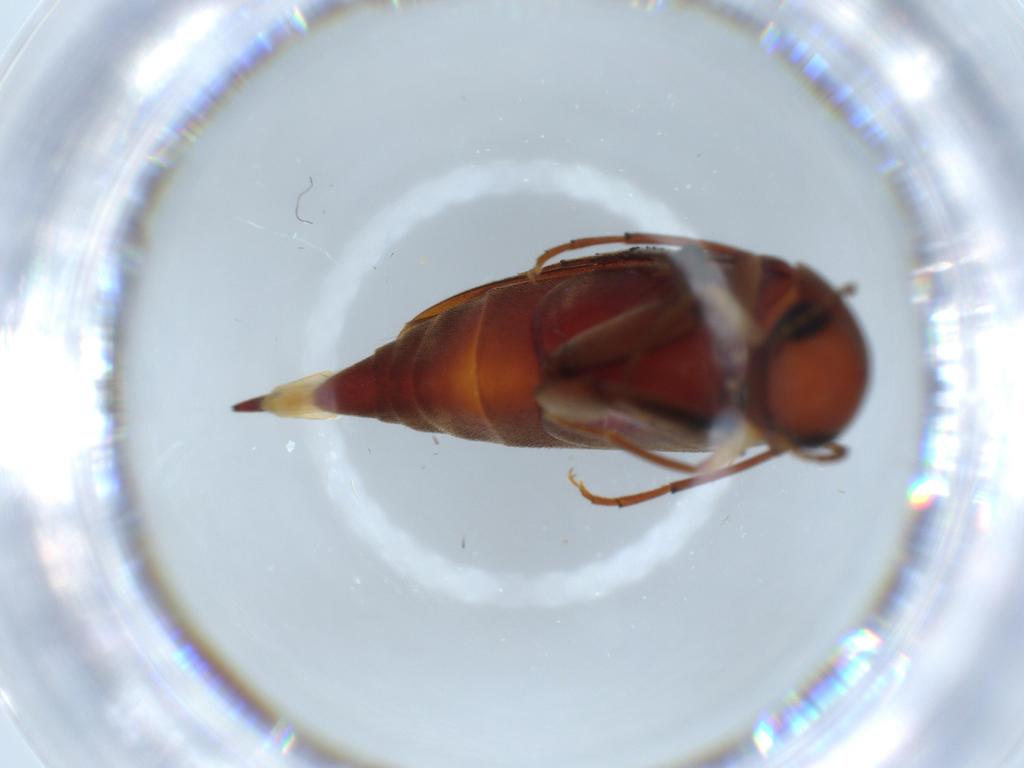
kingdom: Animalia
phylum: Arthropoda
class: Insecta
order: Coleoptera
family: Mordellidae
